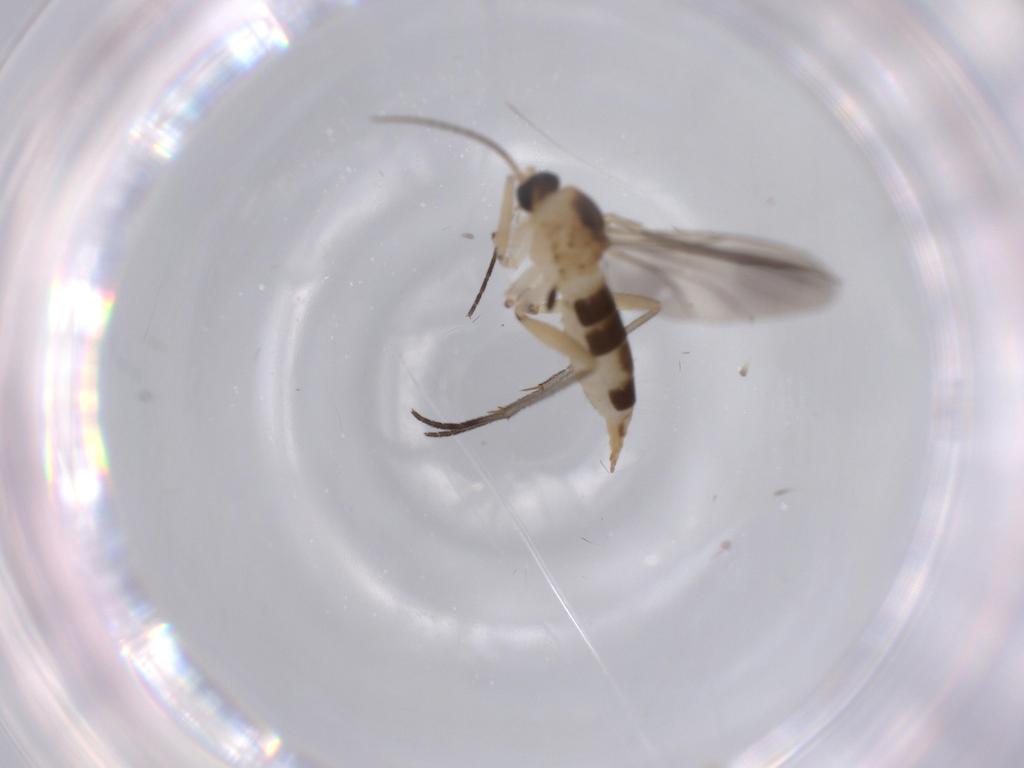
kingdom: Animalia
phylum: Arthropoda
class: Insecta
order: Diptera
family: Sciaridae
